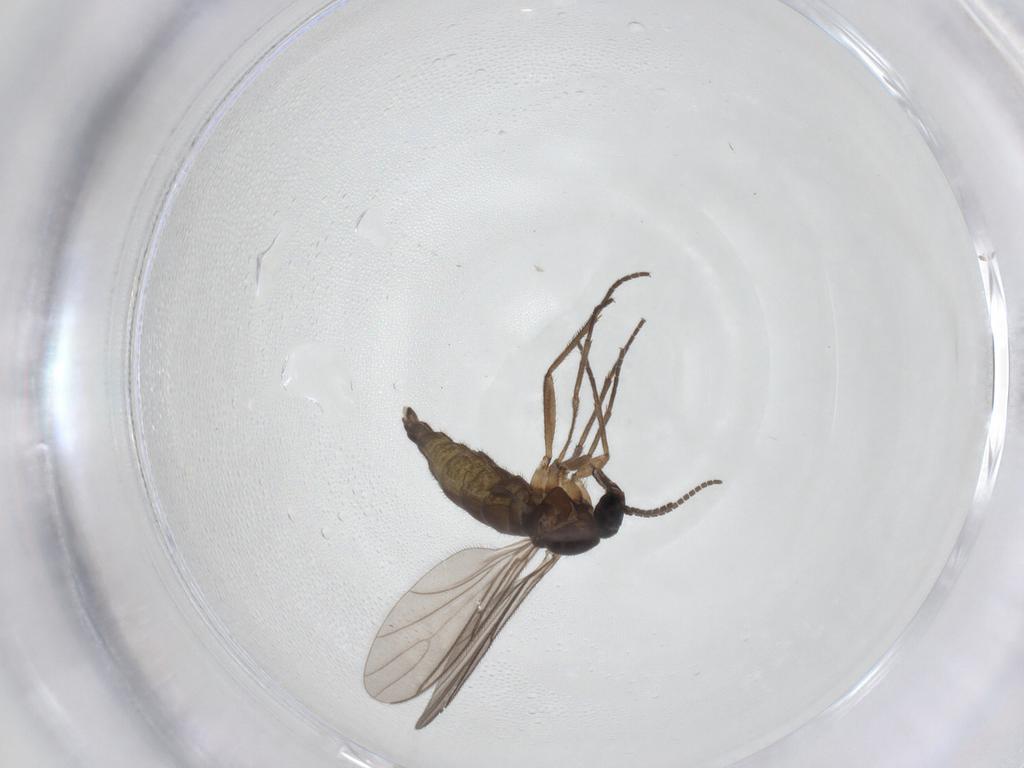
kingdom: Animalia
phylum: Arthropoda
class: Insecta
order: Diptera
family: Sciaridae
